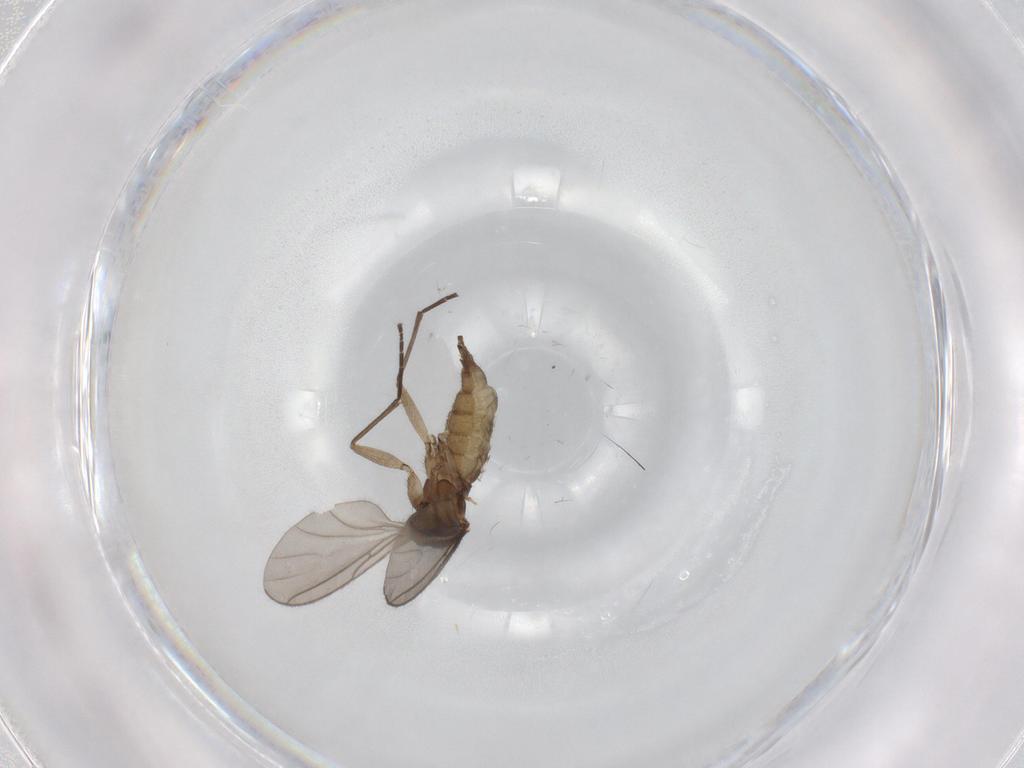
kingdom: Animalia
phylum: Arthropoda
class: Insecta
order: Diptera
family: Sciaridae
